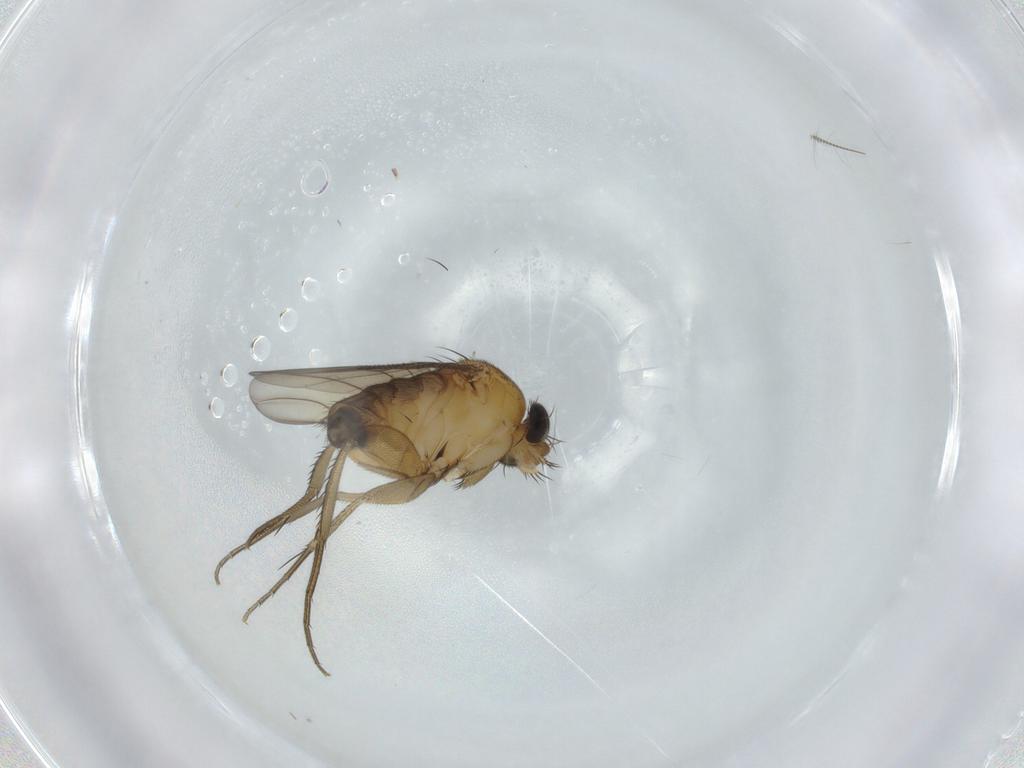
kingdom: Animalia
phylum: Arthropoda
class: Insecta
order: Diptera
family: Phoridae
